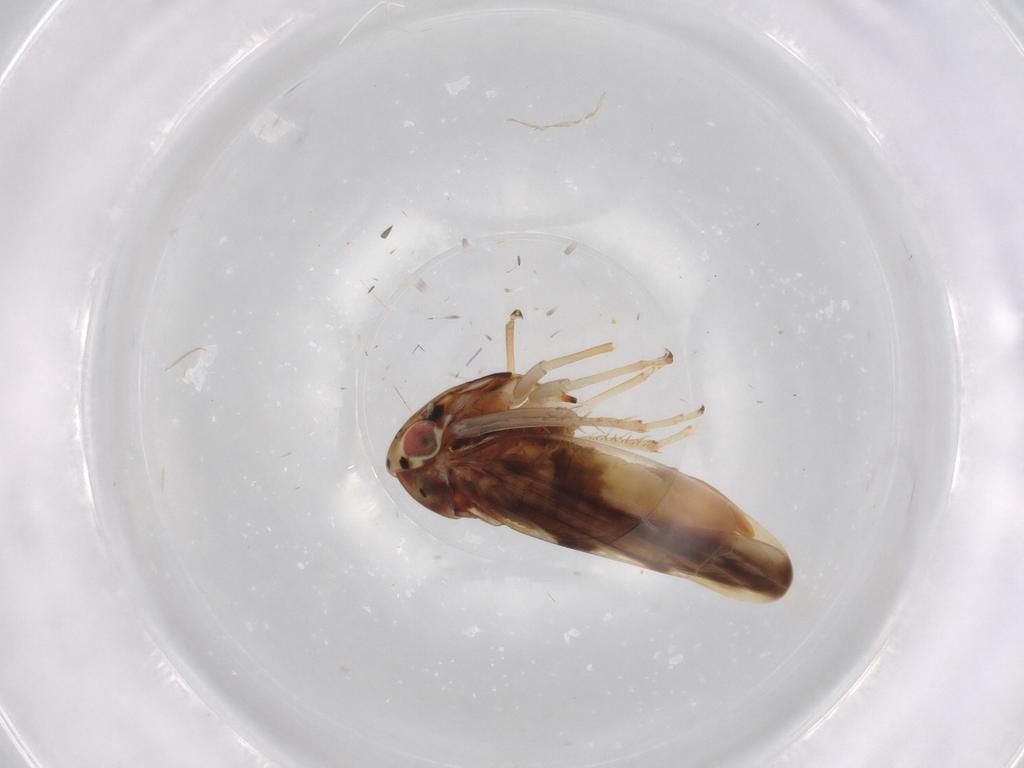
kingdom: Animalia
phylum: Arthropoda
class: Insecta
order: Hemiptera
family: Cicadellidae
